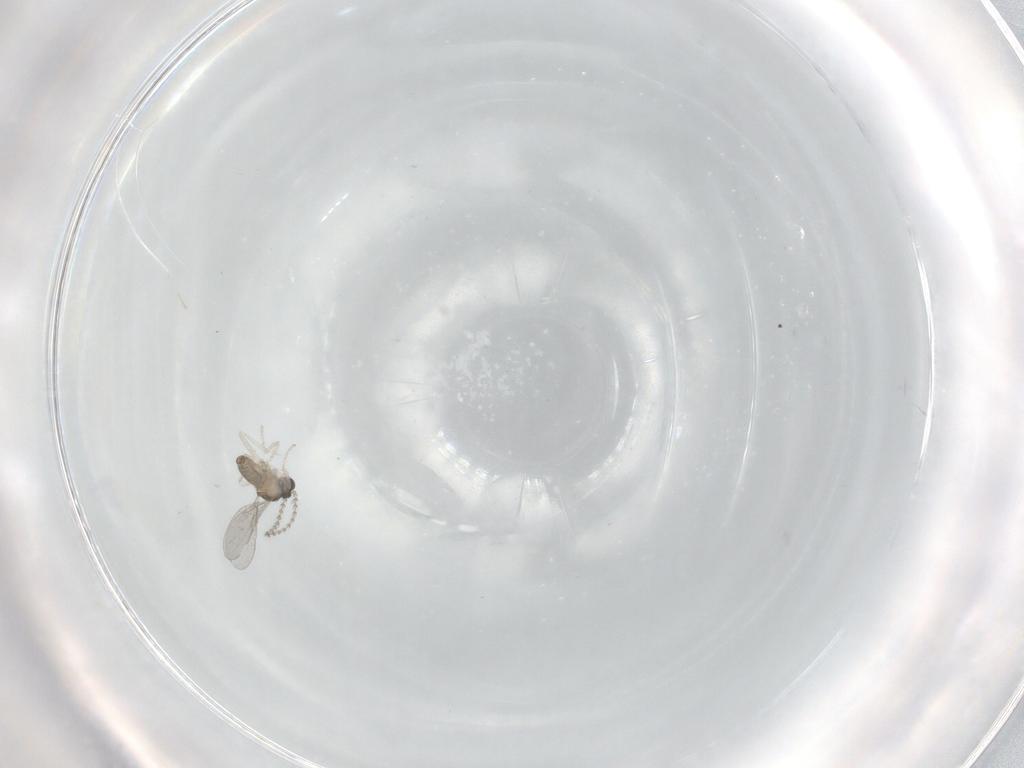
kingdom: Animalia
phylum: Arthropoda
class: Insecta
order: Diptera
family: Cecidomyiidae
